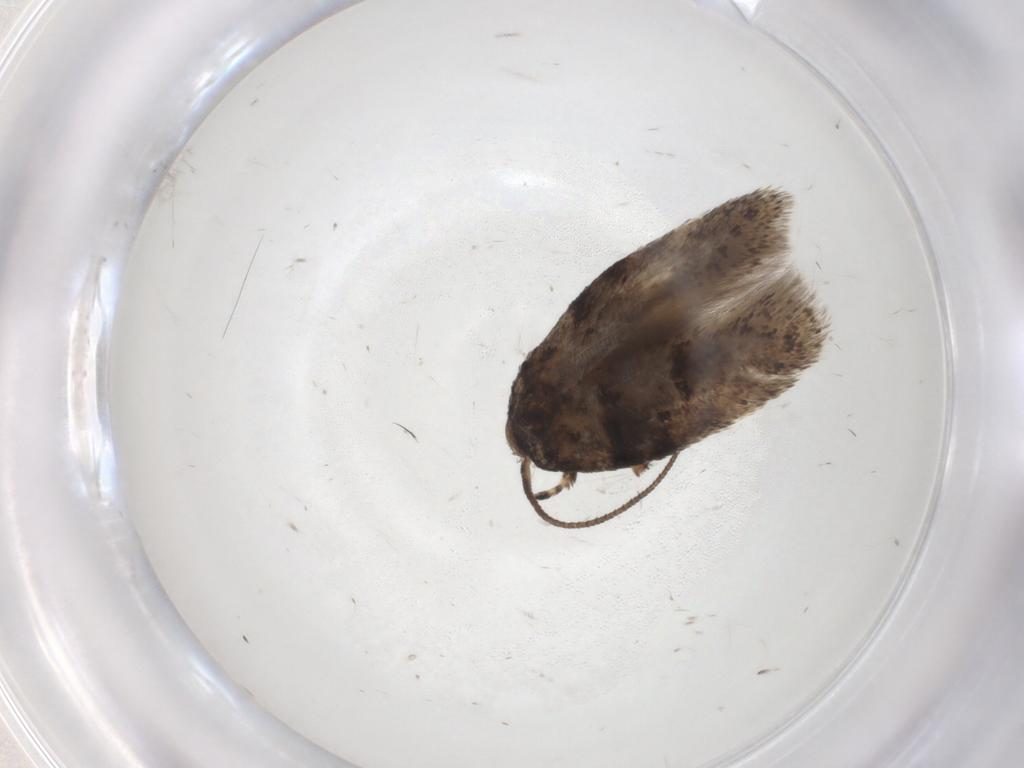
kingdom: Animalia
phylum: Arthropoda
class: Insecta
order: Lepidoptera
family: Gelechiidae
